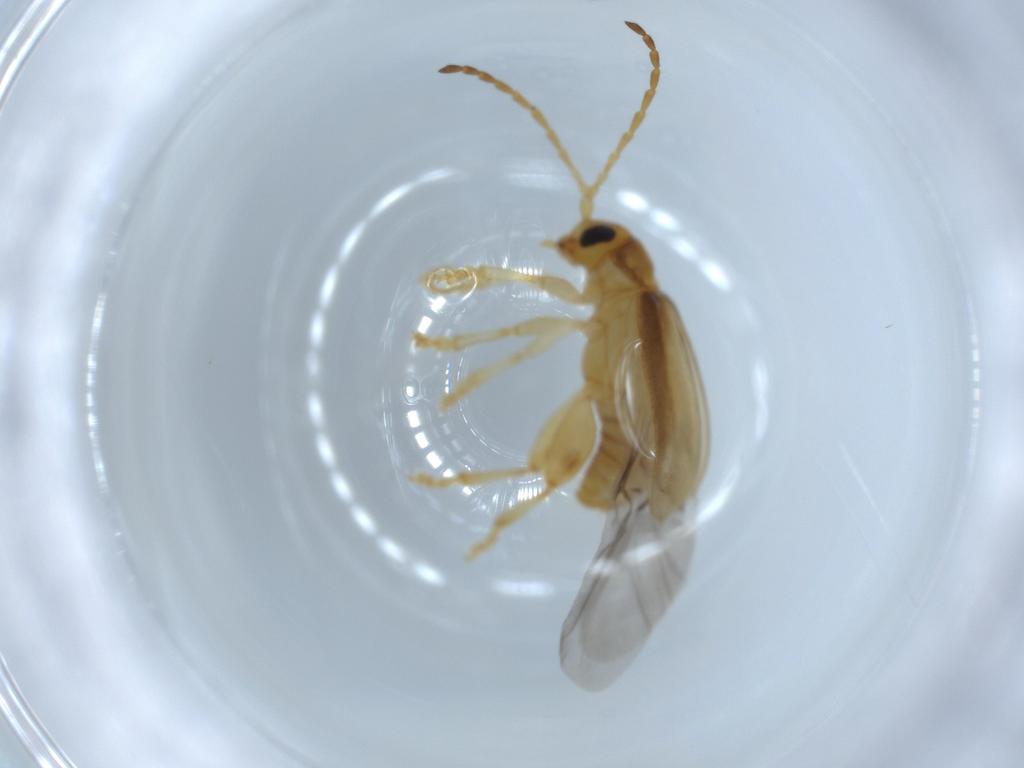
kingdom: Animalia
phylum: Arthropoda
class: Insecta
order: Coleoptera
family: Chrysomelidae
